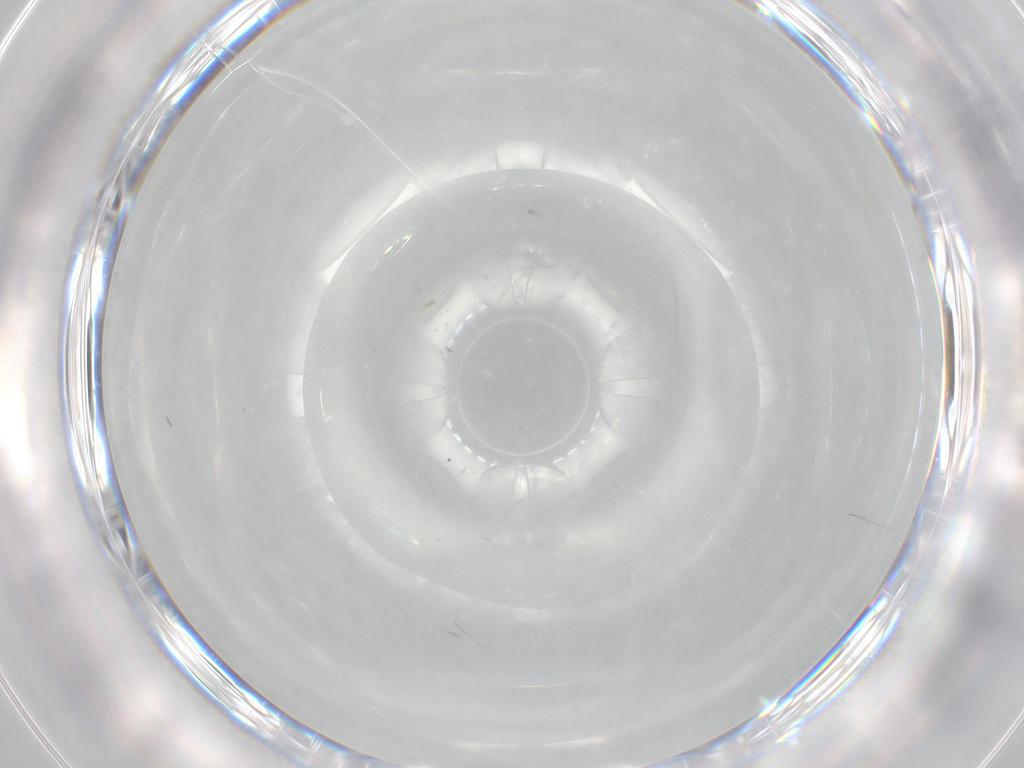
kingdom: Animalia
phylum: Arthropoda
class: Insecta
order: Diptera
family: Cecidomyiidae
